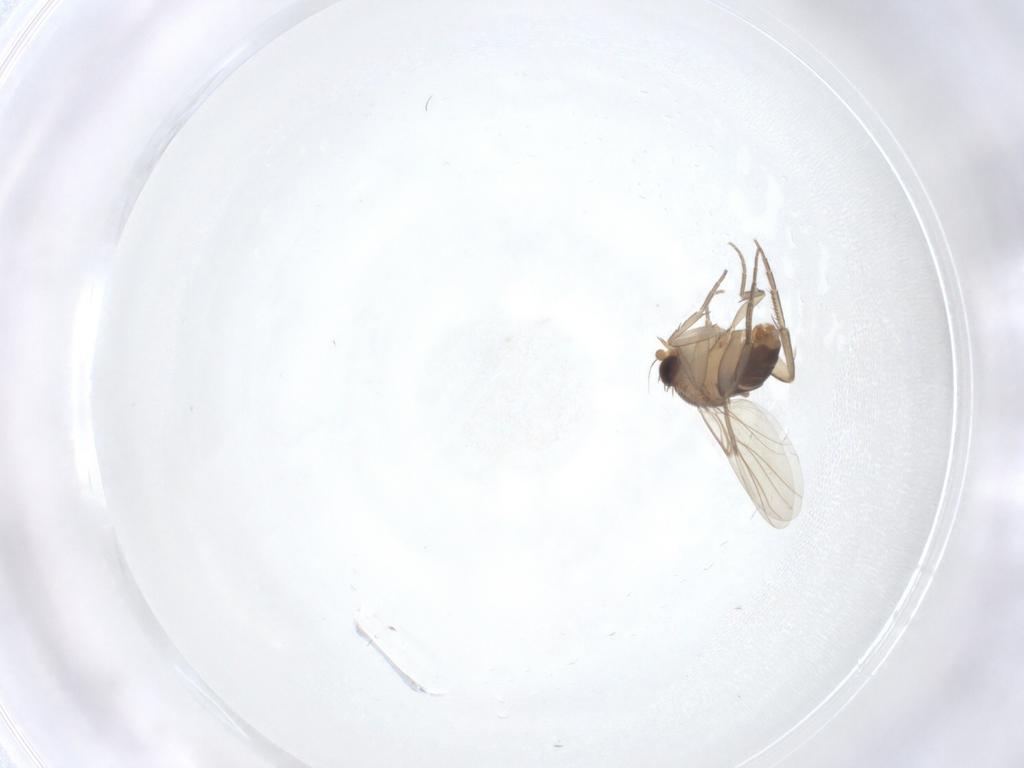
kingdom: Animalia
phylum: Arthropoda
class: Insecta
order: Diptera
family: Phoridae
